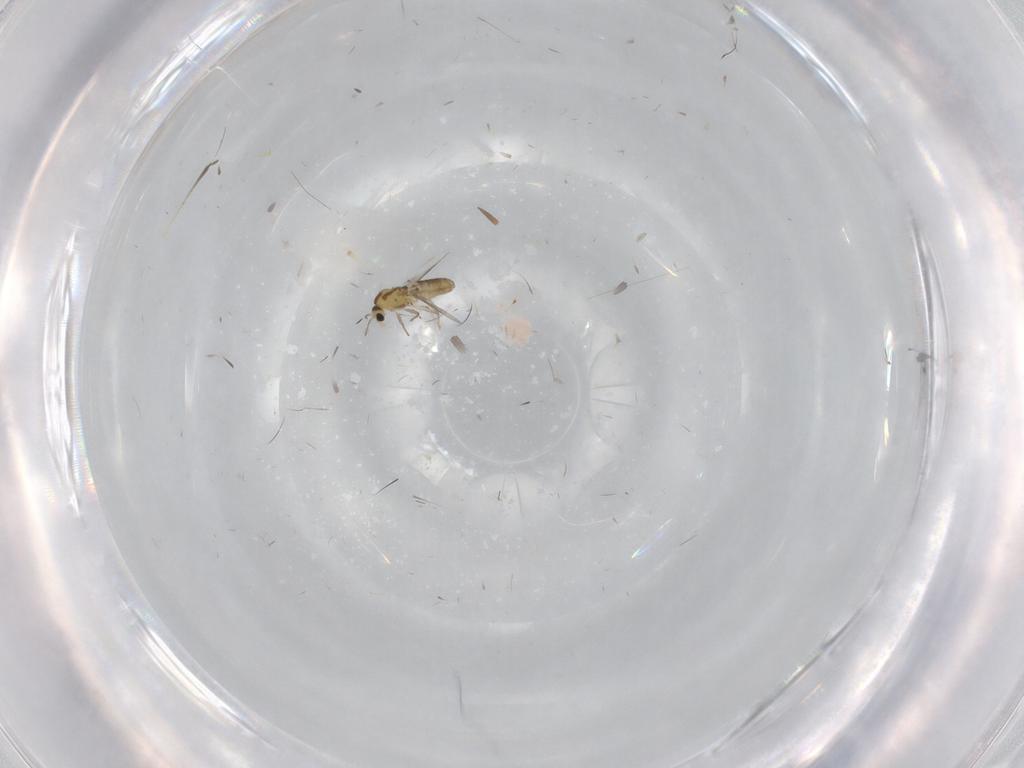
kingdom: Animalia
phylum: Arthropoda
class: Insecta
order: Diptera
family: Chironomidae
